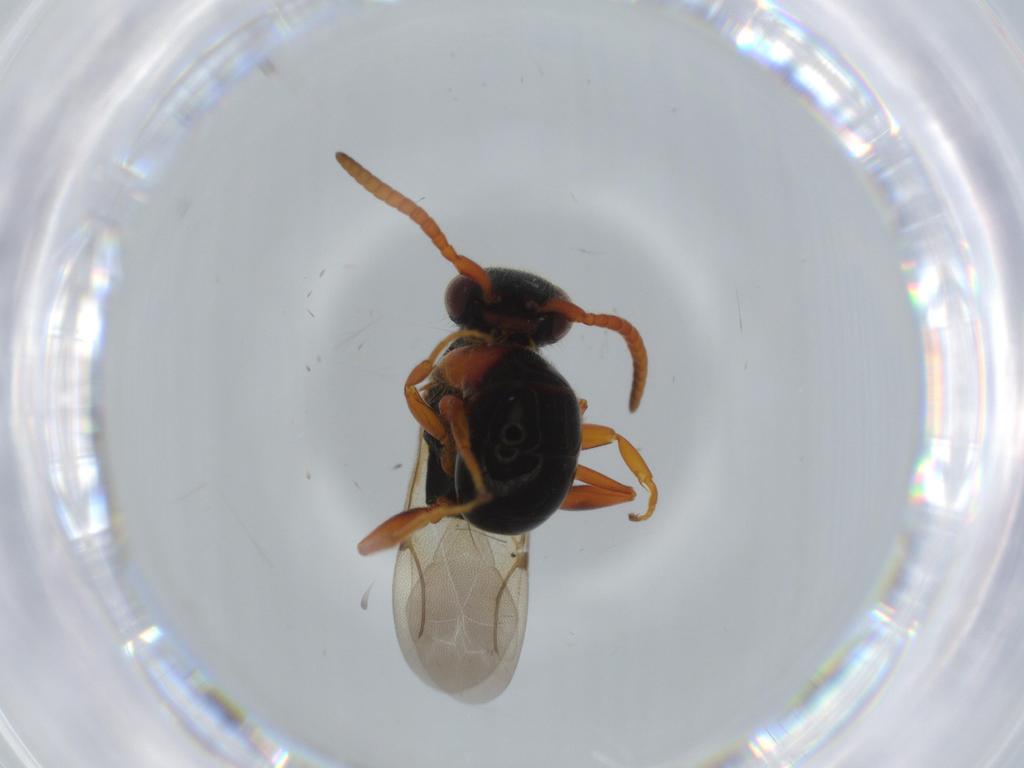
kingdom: Animalia
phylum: Arthropoda
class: Insecta
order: Hymenoptera
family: Bethylidae
